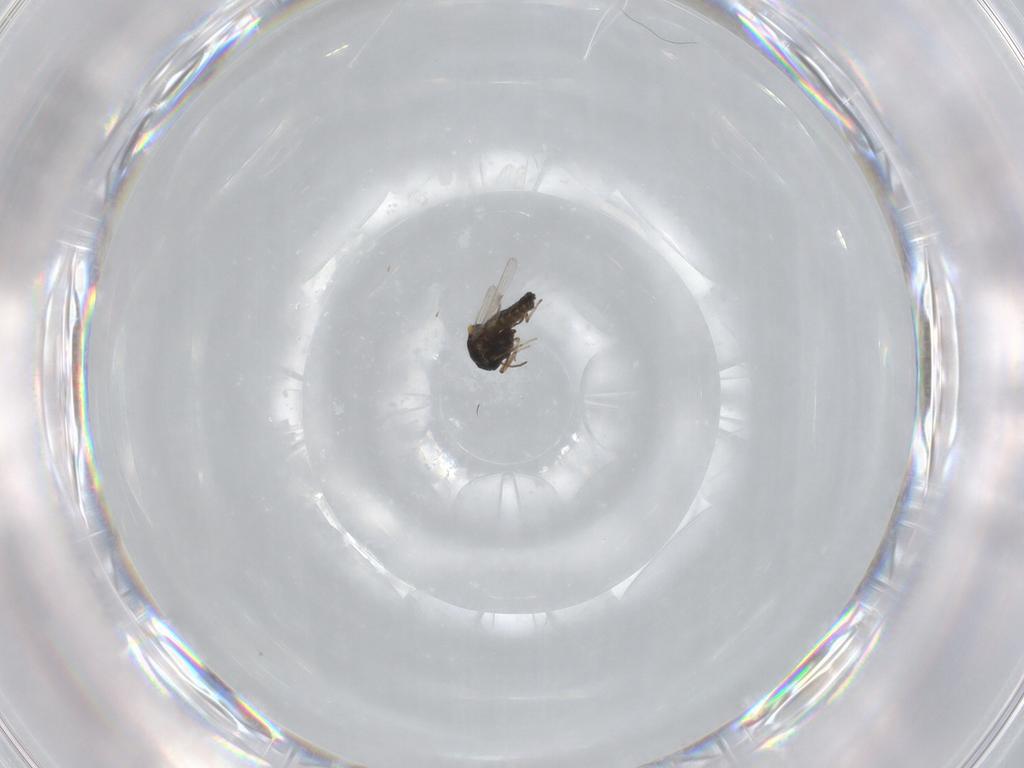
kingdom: Animalia
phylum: Arthropoda
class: Insecta
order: Diptera
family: Ceratopogonidae
